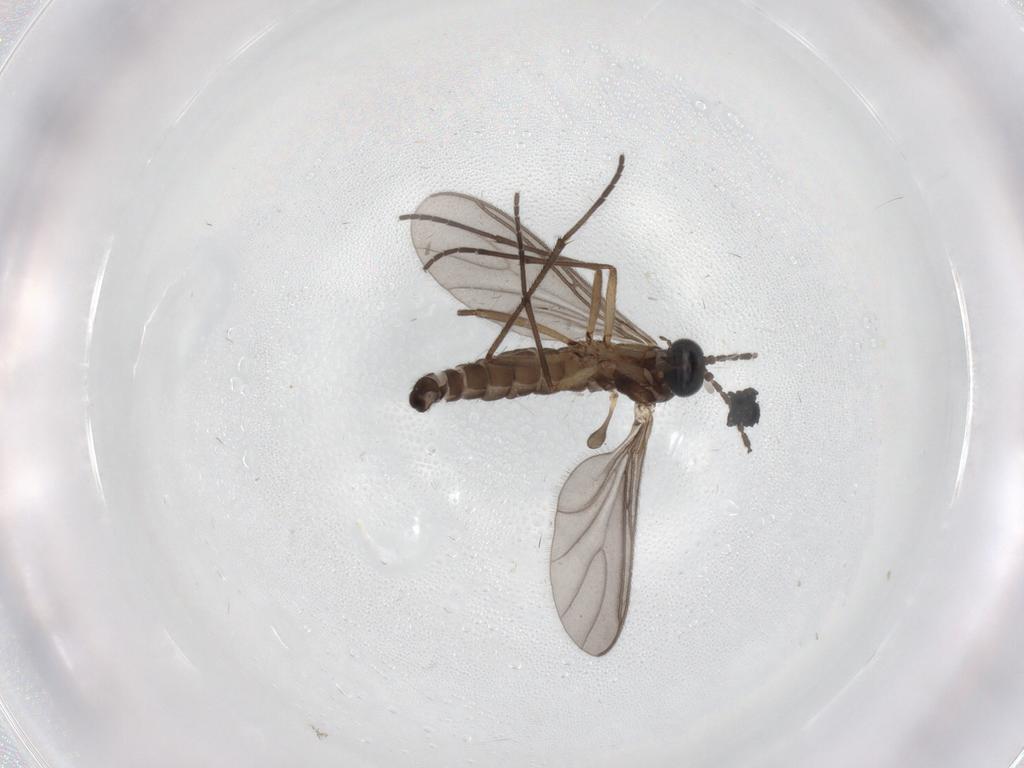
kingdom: Animalia
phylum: Arthropoda
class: Insecta
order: Diptera
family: Sciaridae
